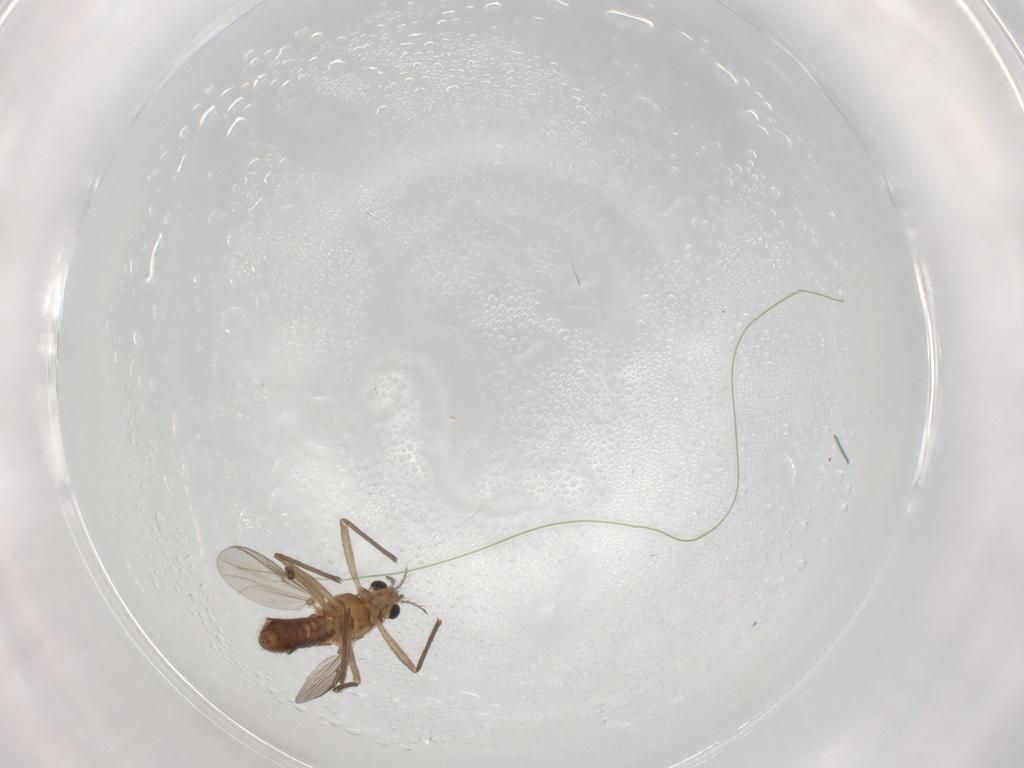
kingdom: Animalia
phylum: Arthropoda
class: Insecta
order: Diptera
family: Chironomidae
